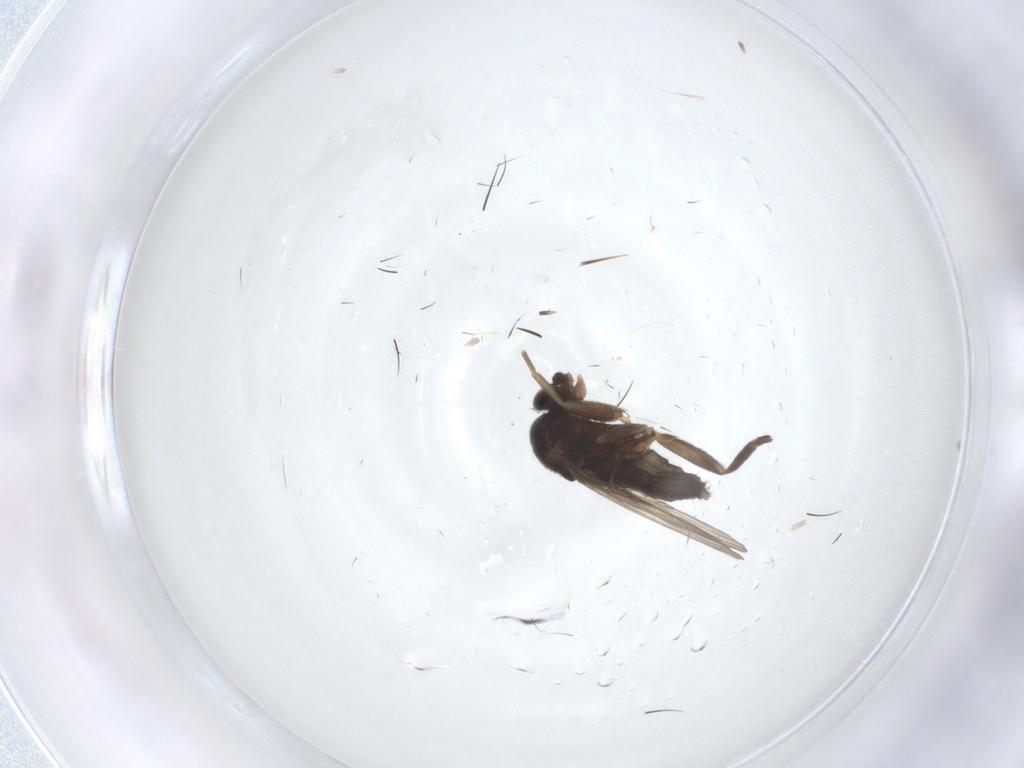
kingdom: Animalia
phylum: Arthropoda
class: Insecta
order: Diptera
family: Phoridae
